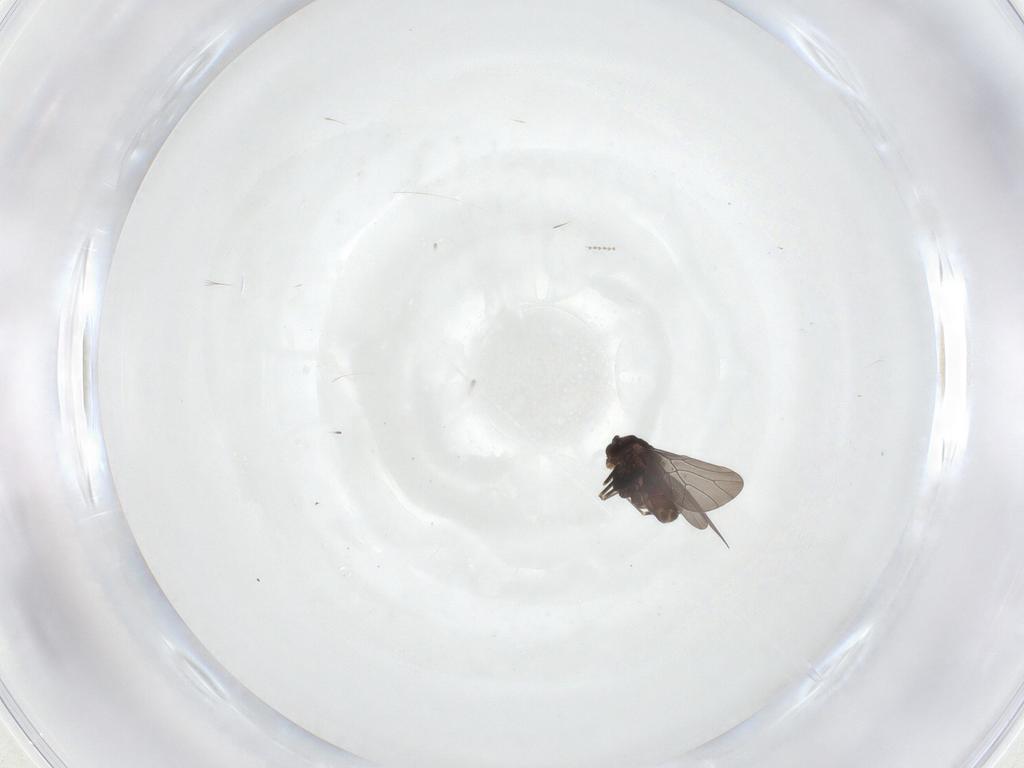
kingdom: Animalia
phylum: Arthropoda
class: Insecta
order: Psocodea
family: Lepidopsocidae
